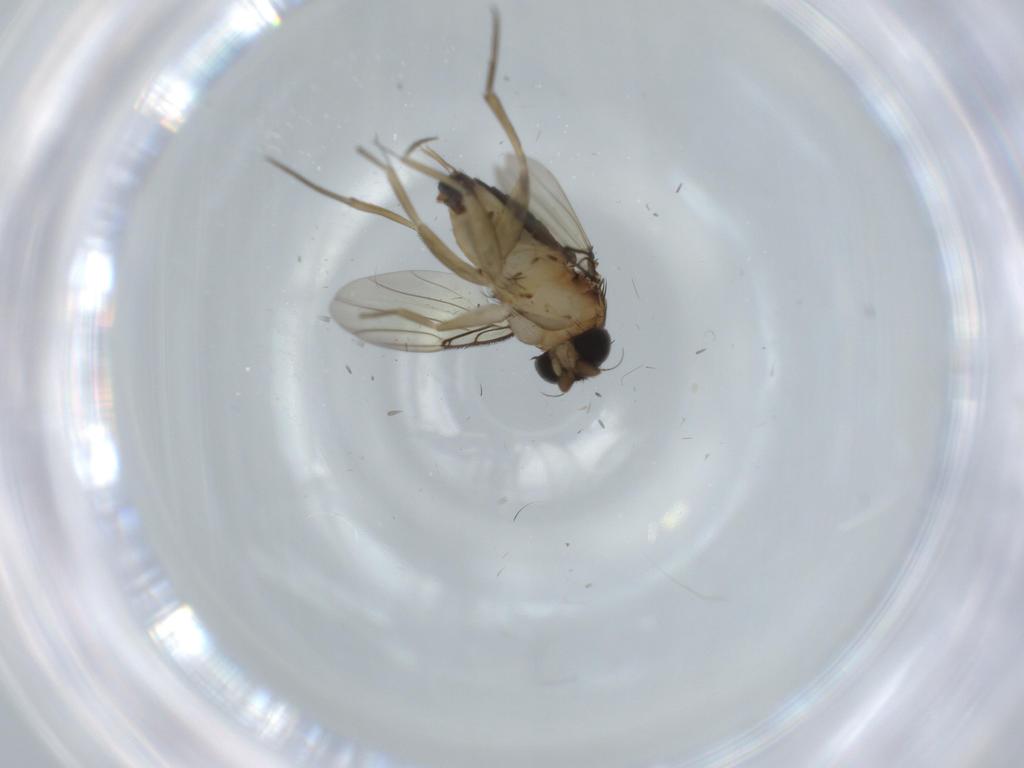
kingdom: Animalia
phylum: Arthropoda
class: Insecta
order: Diptera
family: Phoridae
